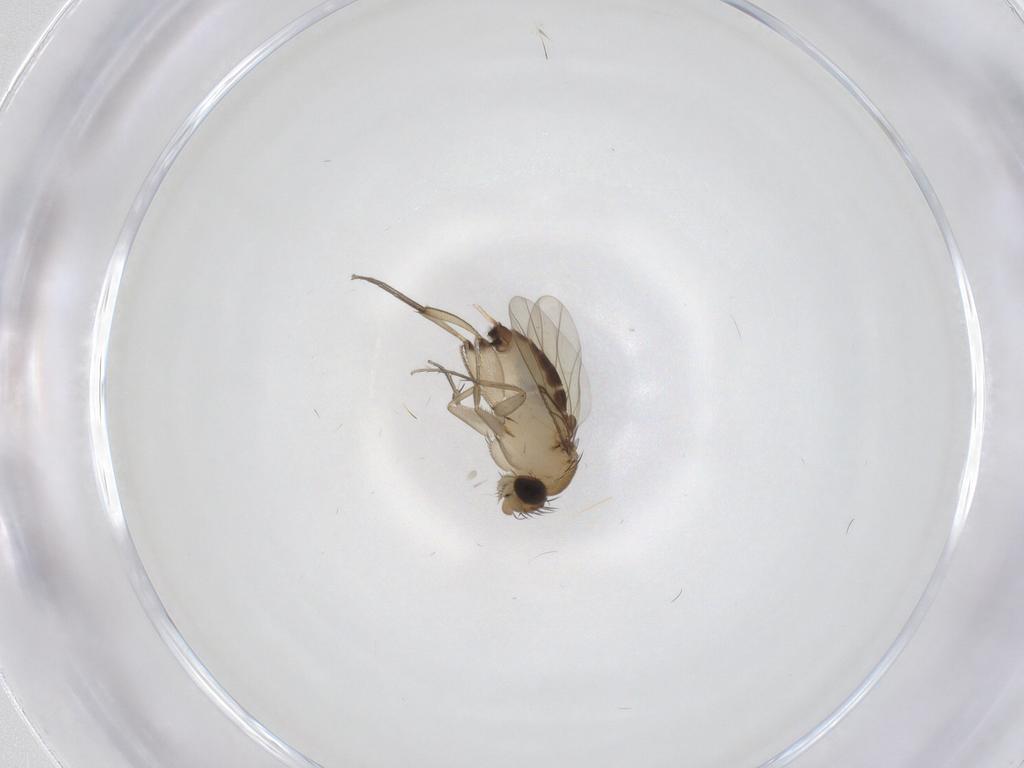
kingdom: Animalia
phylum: Arthropoda
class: Insecta
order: Diptera
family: Phoridae
